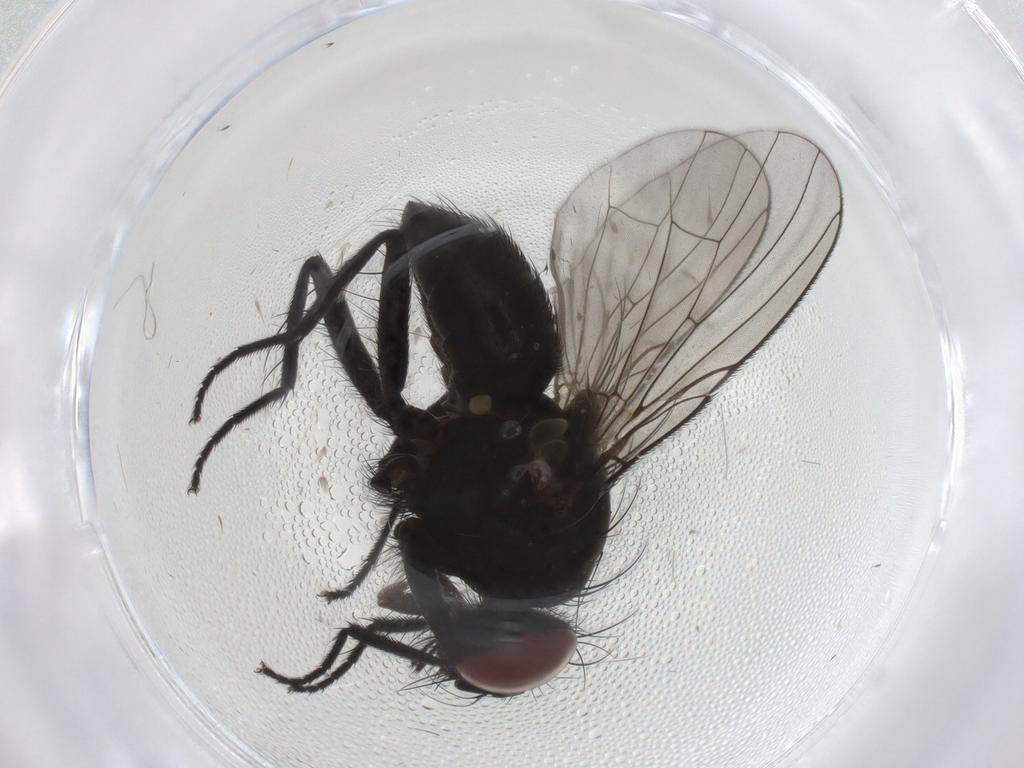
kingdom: Animalia
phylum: Arthropoda
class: Insecta
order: Diptera
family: Muscidae
